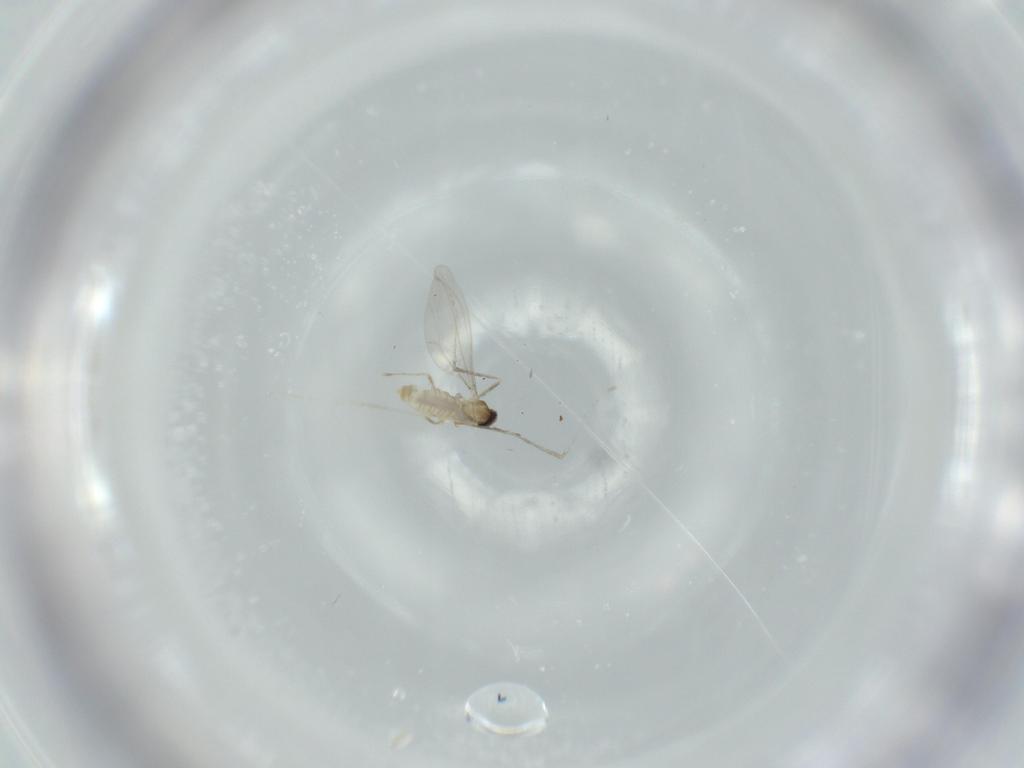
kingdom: Animalia
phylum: Arthropoda
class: Insecta
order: Diptera
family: Cecidomyiidae
